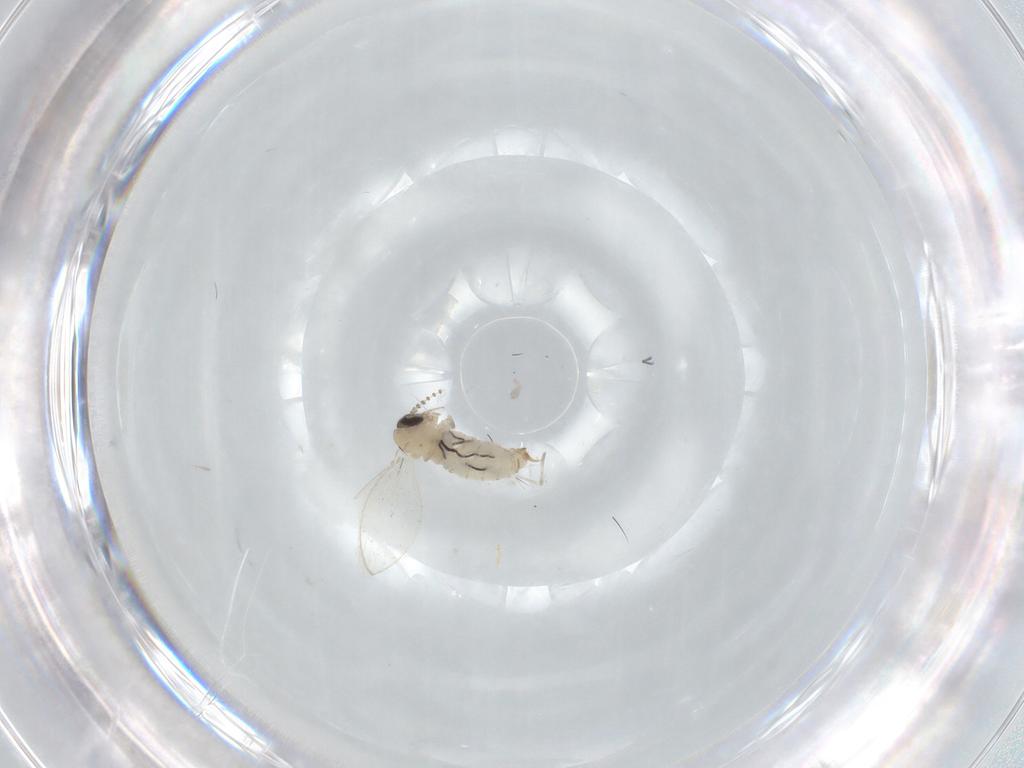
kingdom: Animalia
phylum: Arthropoda
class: Insecta
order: Diptera
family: Psychodidae
